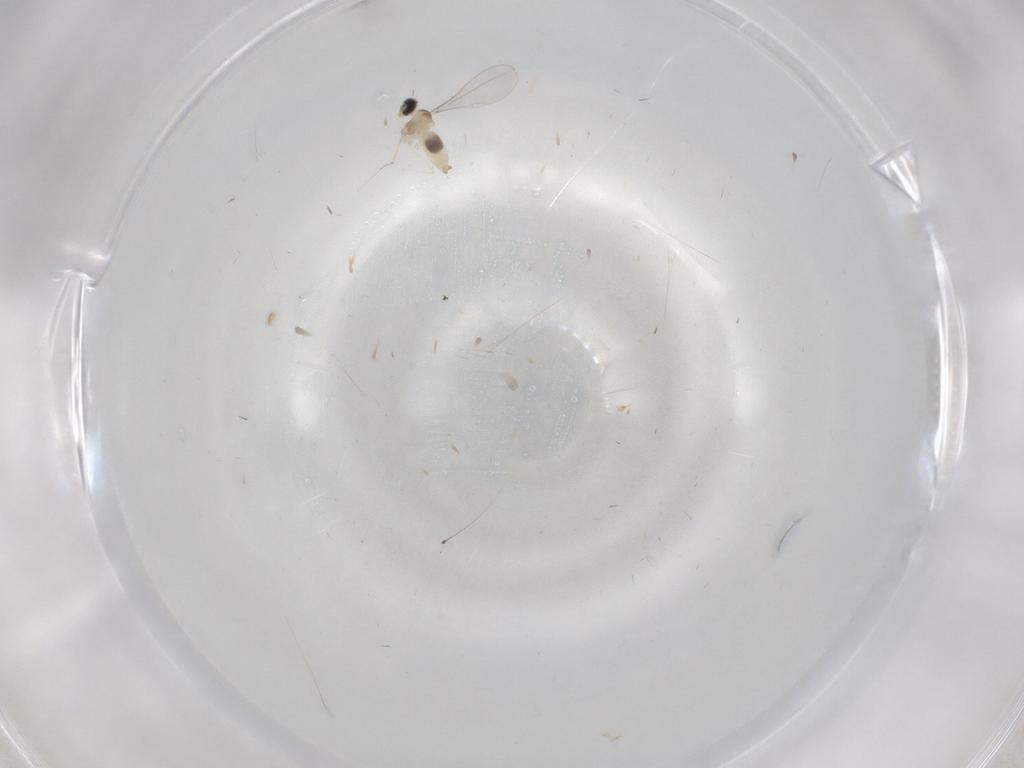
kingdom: Animalia
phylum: Arthropoda
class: Insecta
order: Diptera
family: Cecidomyiidae
